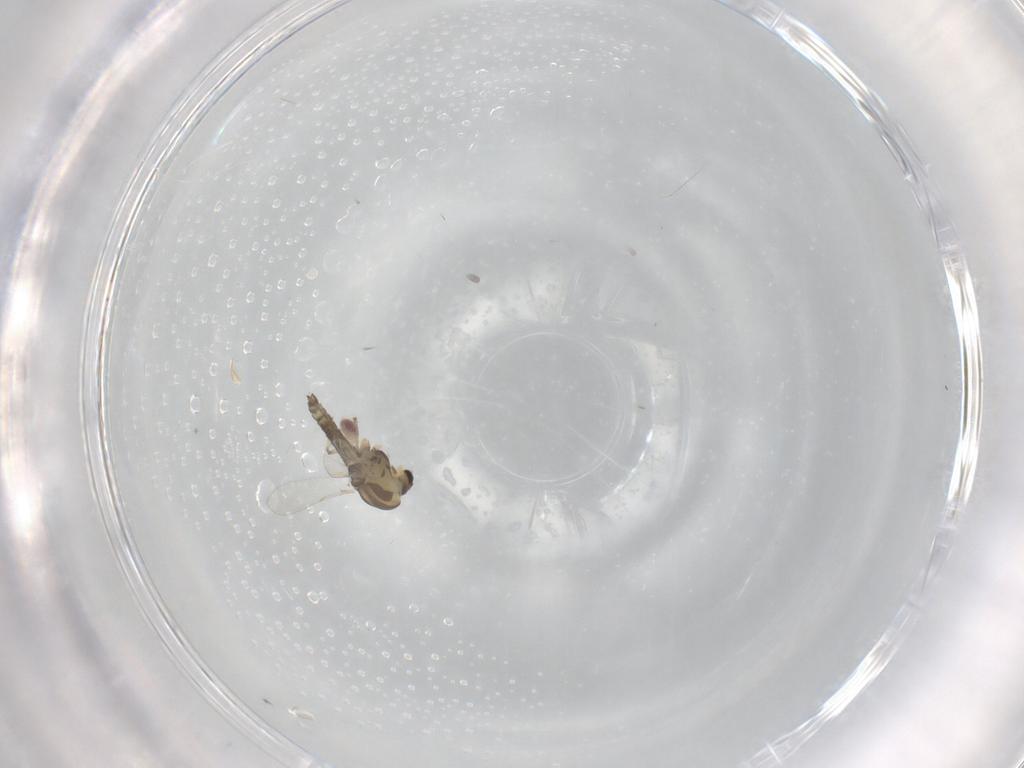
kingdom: Animalia
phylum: Arthropoda
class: Insecta
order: Diptera
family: Chironomidae
